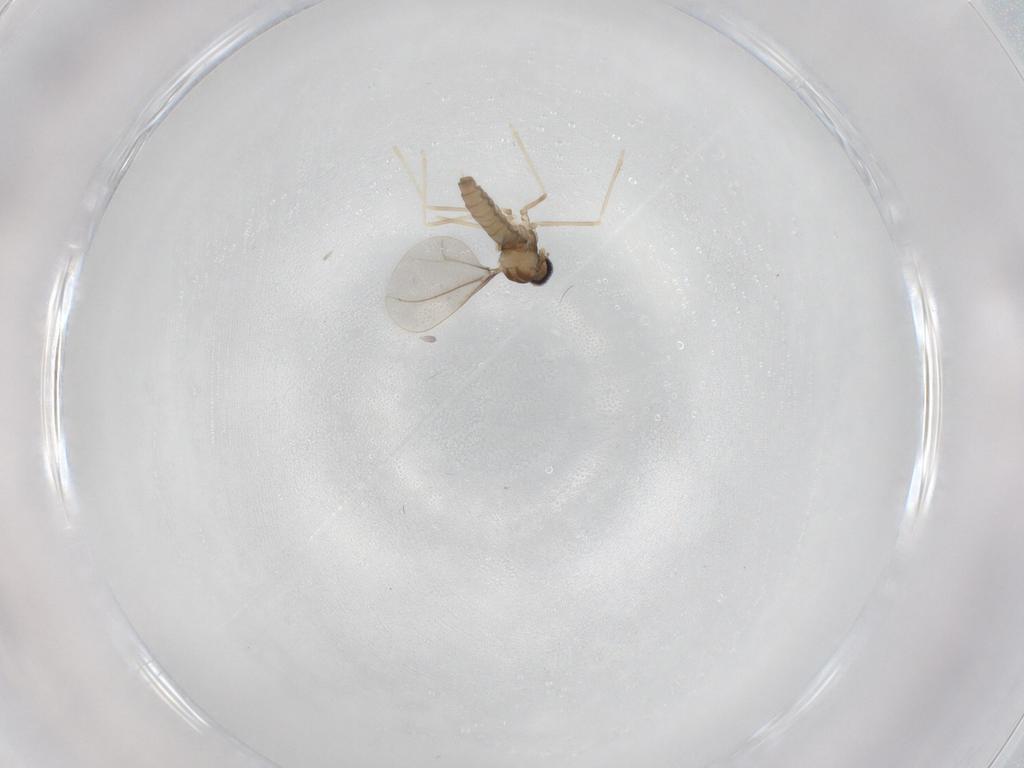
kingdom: Animalia
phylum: Arthropoda
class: Insecta
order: Diptera
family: Cecidomyiidae
